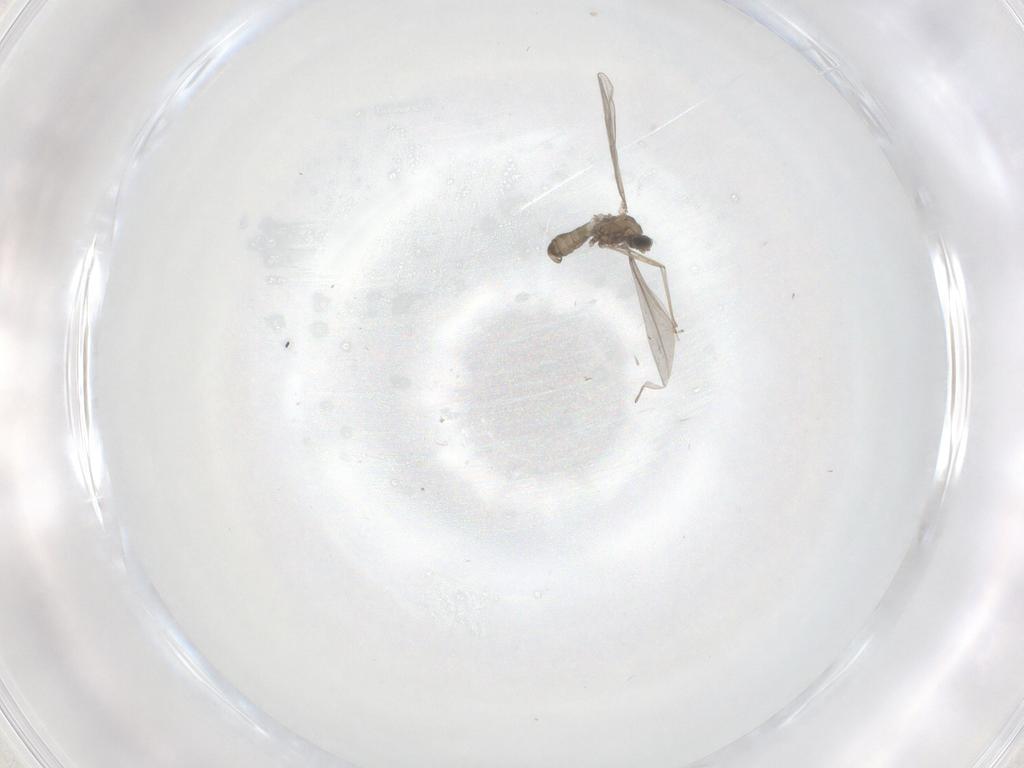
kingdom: Animalia
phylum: Arthropoda
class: Insecta
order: Diptera
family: Cecidomyiidae
